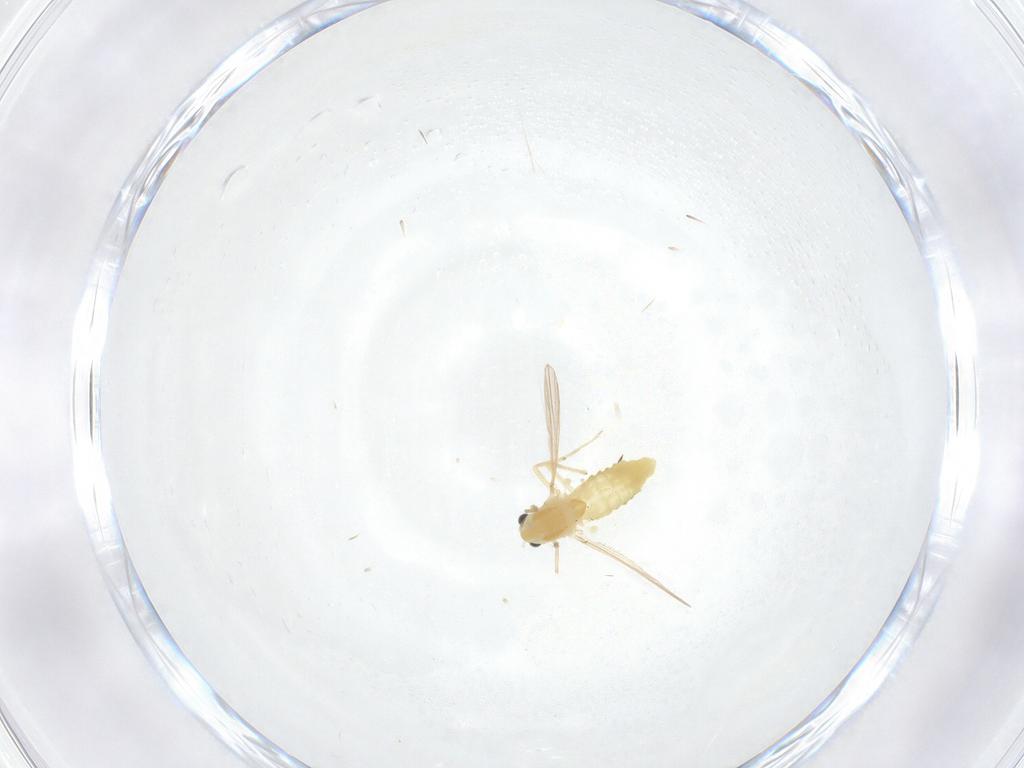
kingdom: Animalia
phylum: Arthropoda
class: Insecta
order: Diptera
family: Chironomidae
